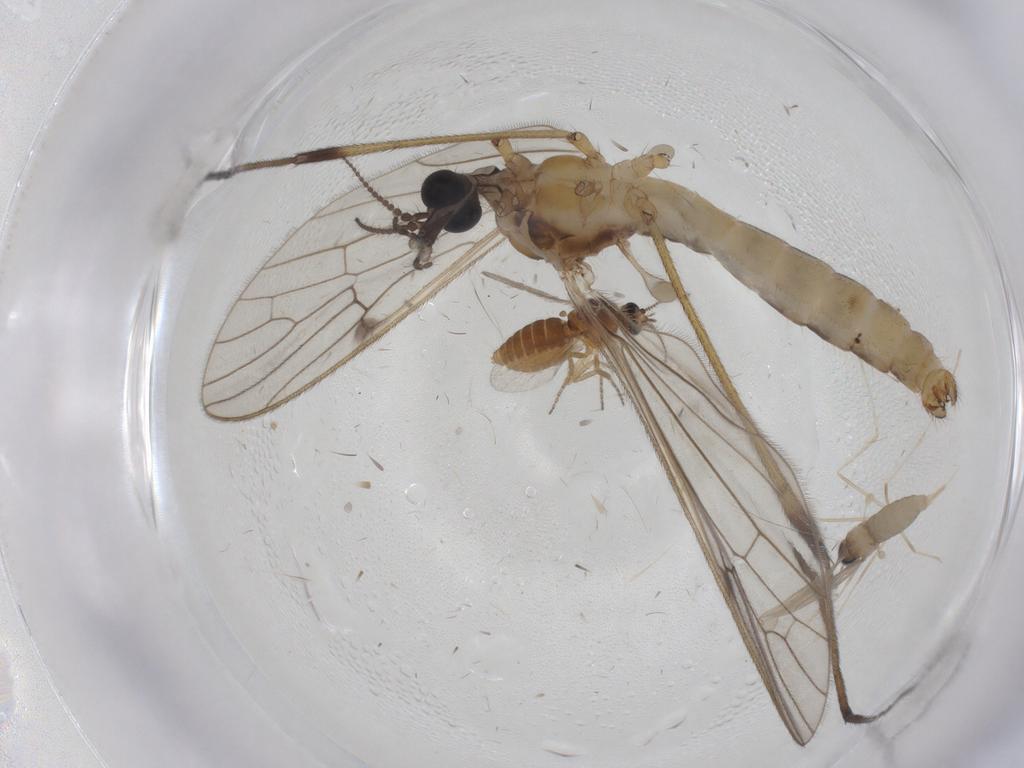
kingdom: Animalia
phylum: Arthropoda
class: Insecta
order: Diptera
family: Limoniidae
